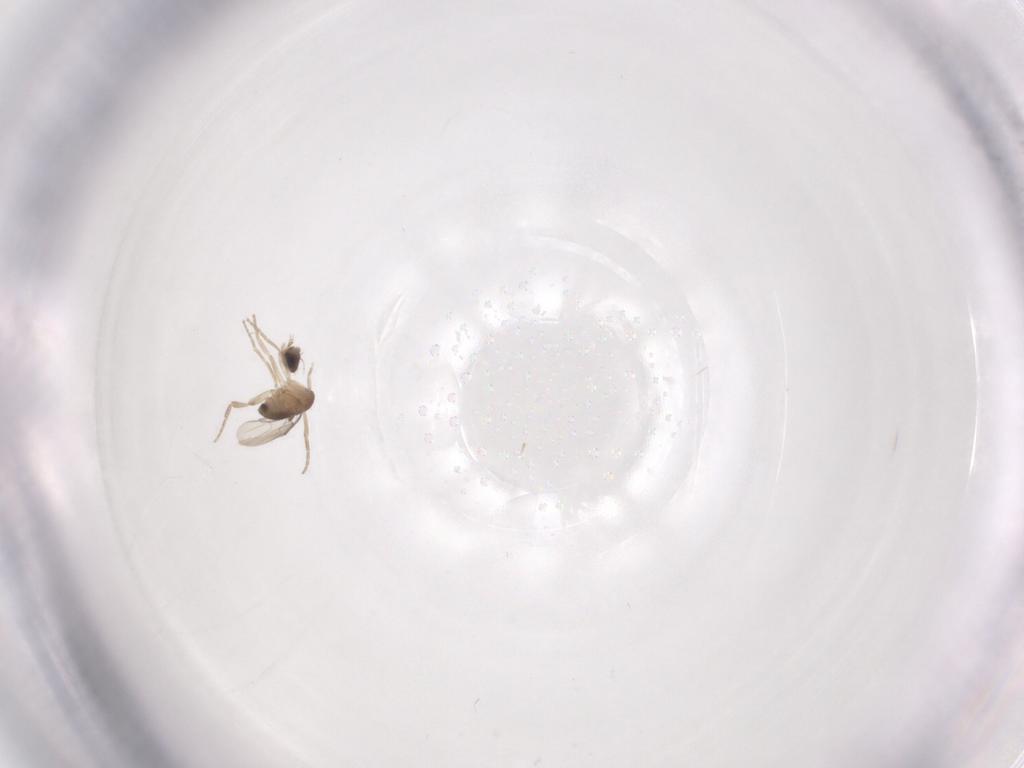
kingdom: Animalia
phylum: Arthropoda
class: Insecta
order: Diptera
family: Phoridae
